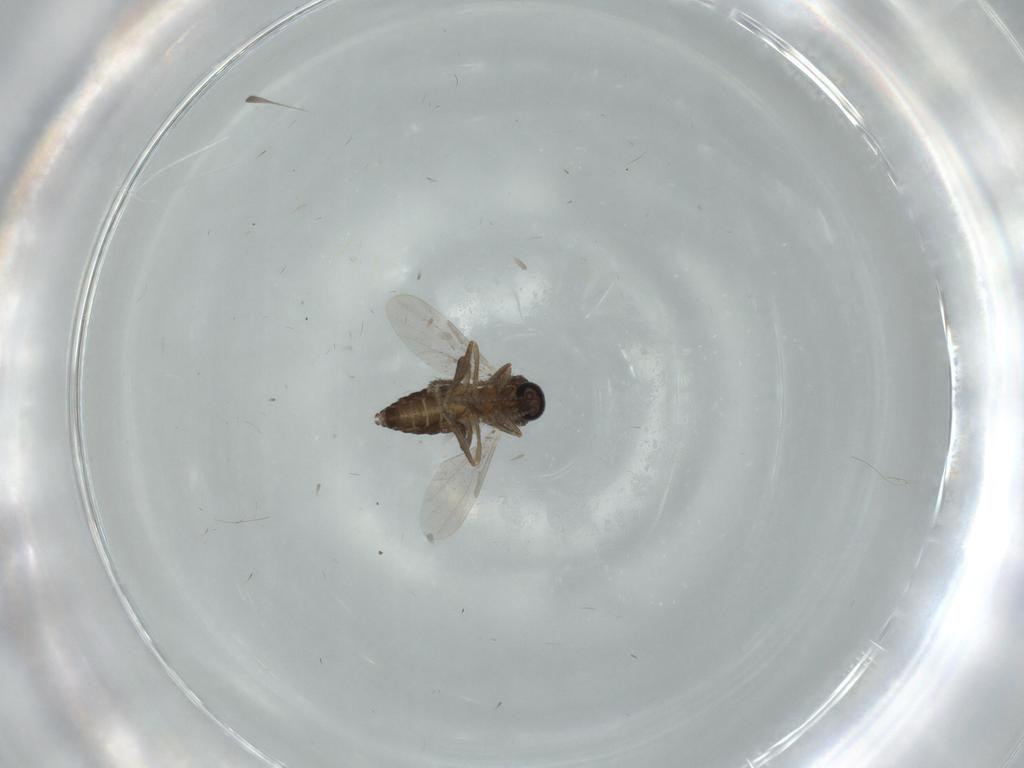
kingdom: Animalia
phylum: Arthropoda
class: Insecta
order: Diptera
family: Ceratopogonidae
